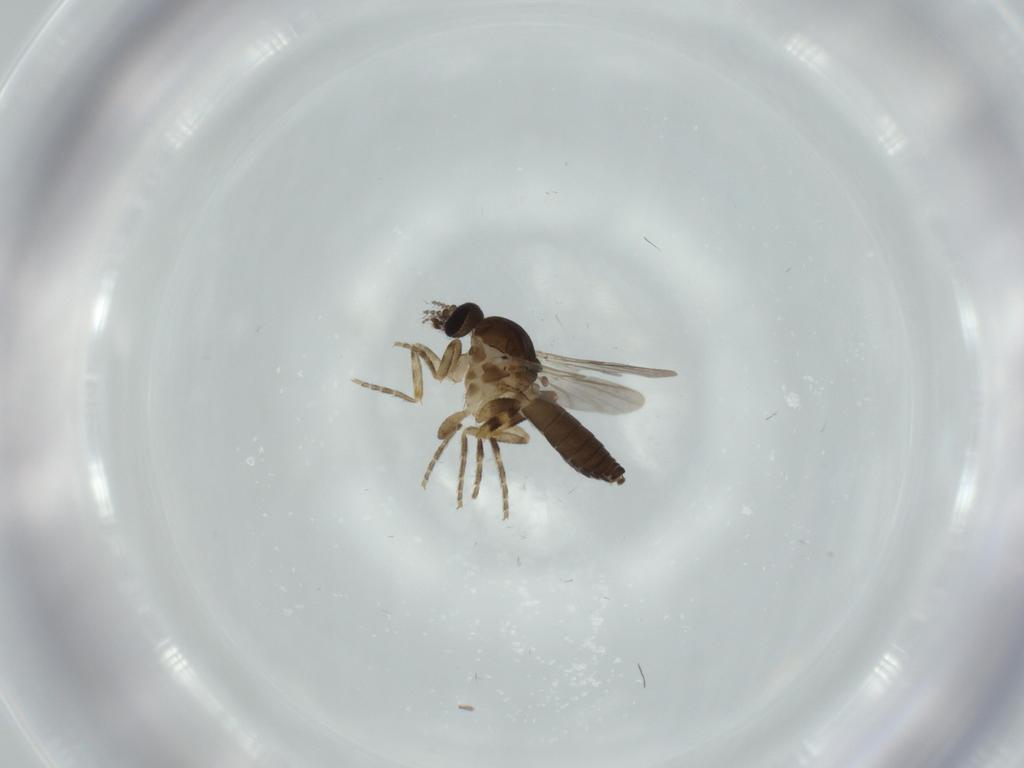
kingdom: Animalia
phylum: Arthropoda
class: Insecta
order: Diptera
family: Ceratopogonidae
